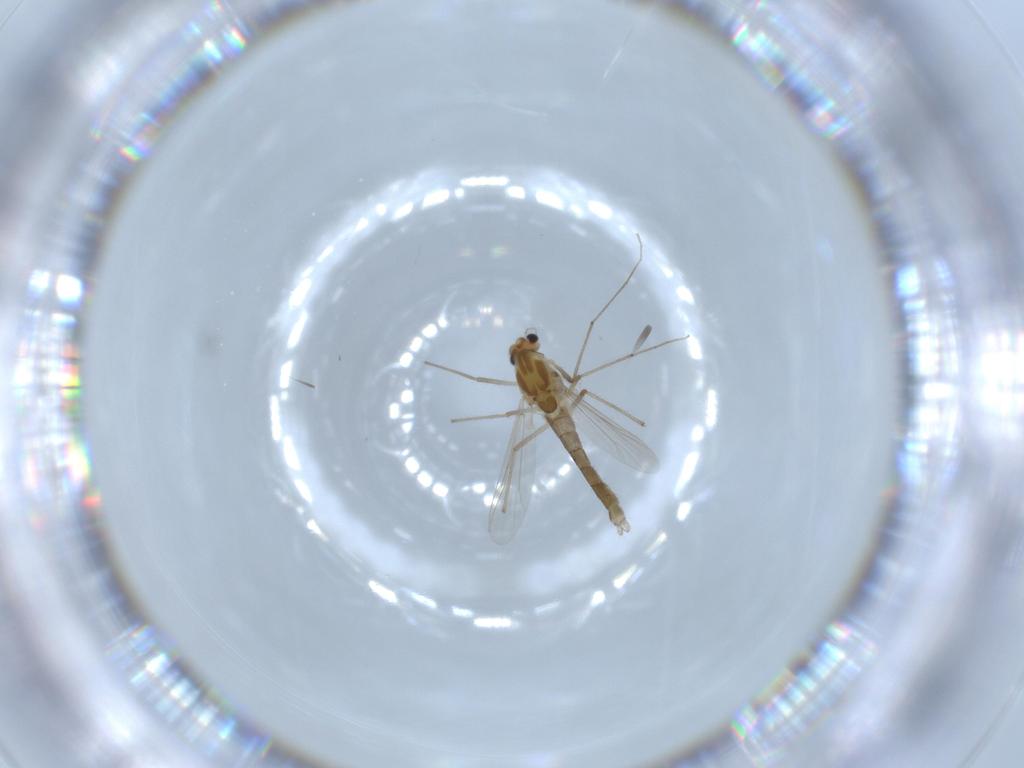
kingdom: Animalia
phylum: Arthropoda
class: Insecta
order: Diptera
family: Chironomidae
